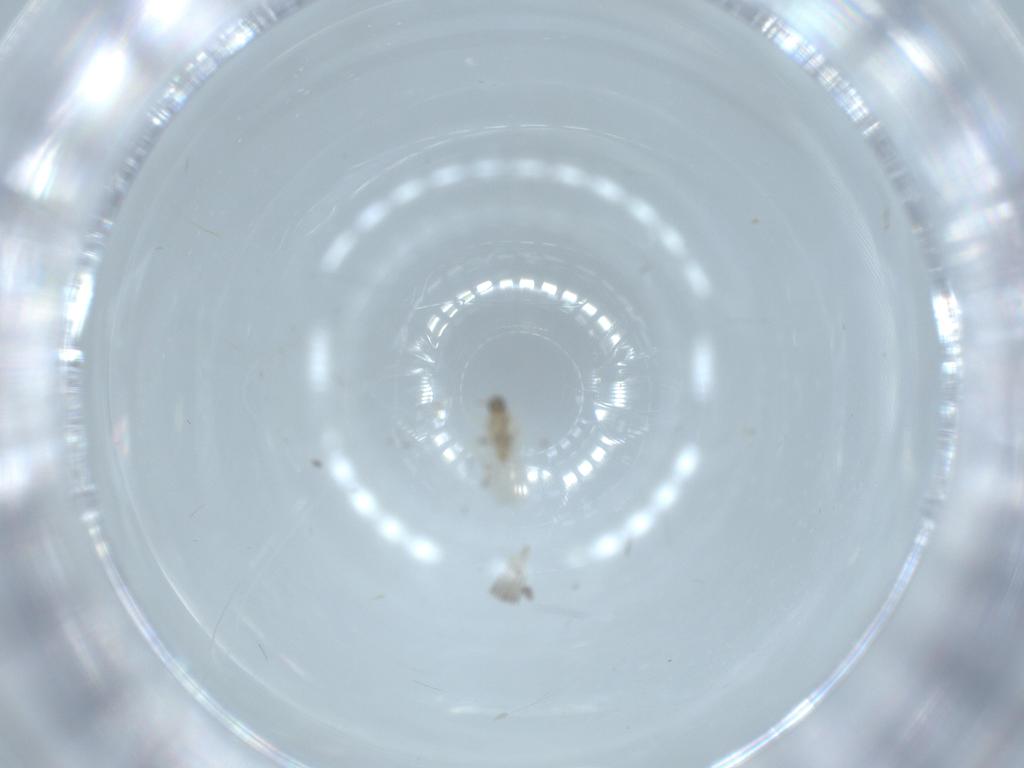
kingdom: Animalia
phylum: Arthropoda
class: Insecta
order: Diptera
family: Cecidomyiidae
